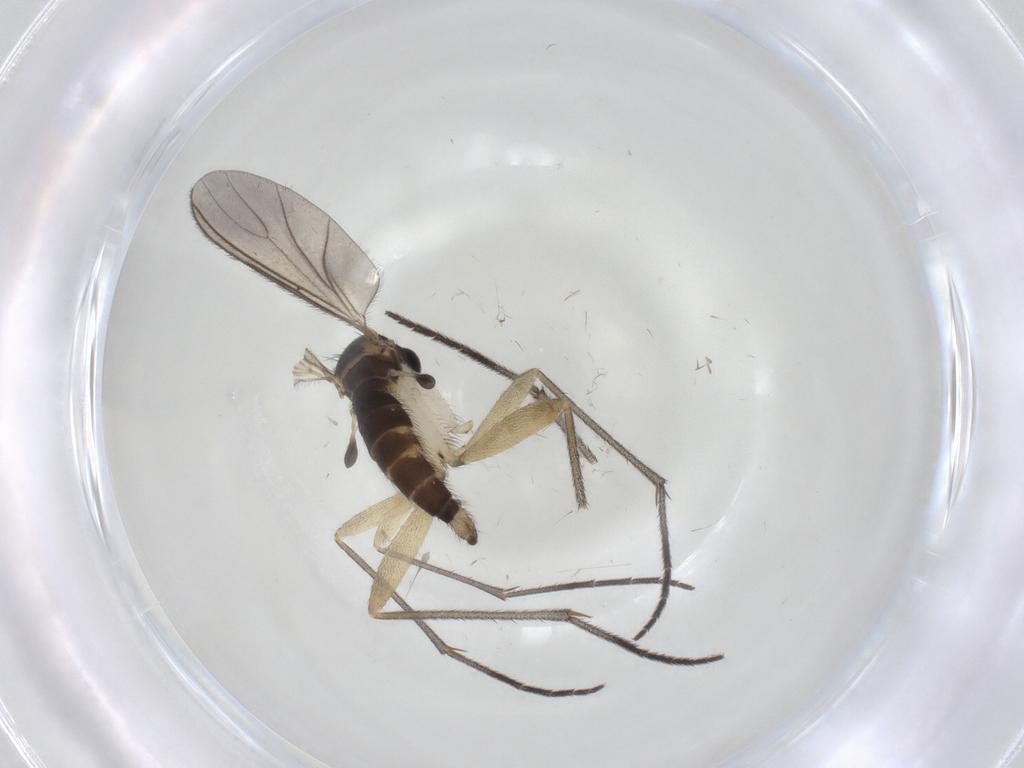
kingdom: Animalia
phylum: Arthropoda
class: Insecta
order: Diptera
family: Sciaridae
